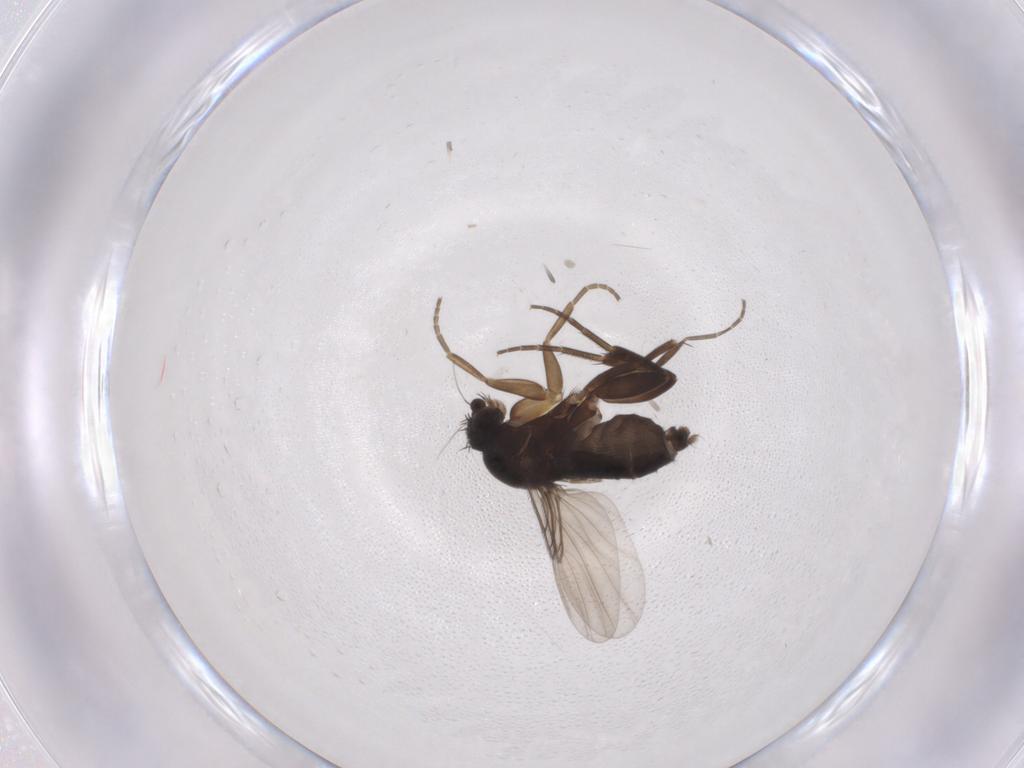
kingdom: Animalia
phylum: Arthropoda
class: Insecta
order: Diptera
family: Phoridae
